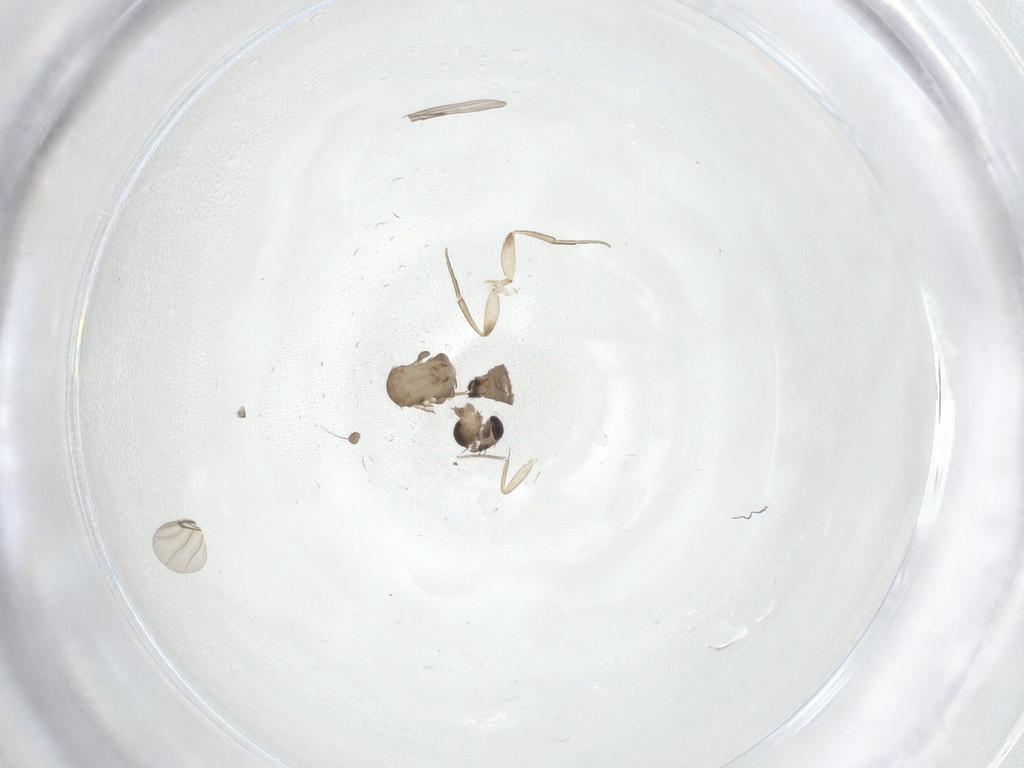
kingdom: Animalia
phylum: Arthropoda
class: Insecta
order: Diptera
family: Phoridae
